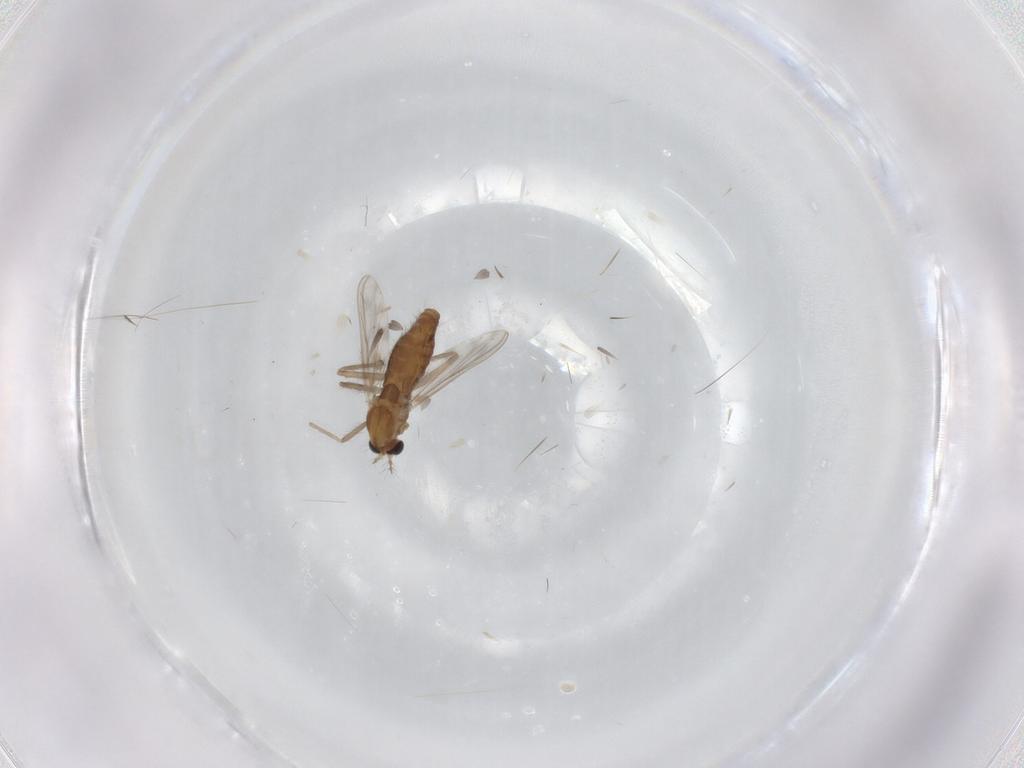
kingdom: Animalia
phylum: Arthropoda
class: Insecta
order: Diptera
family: Chironomidae
